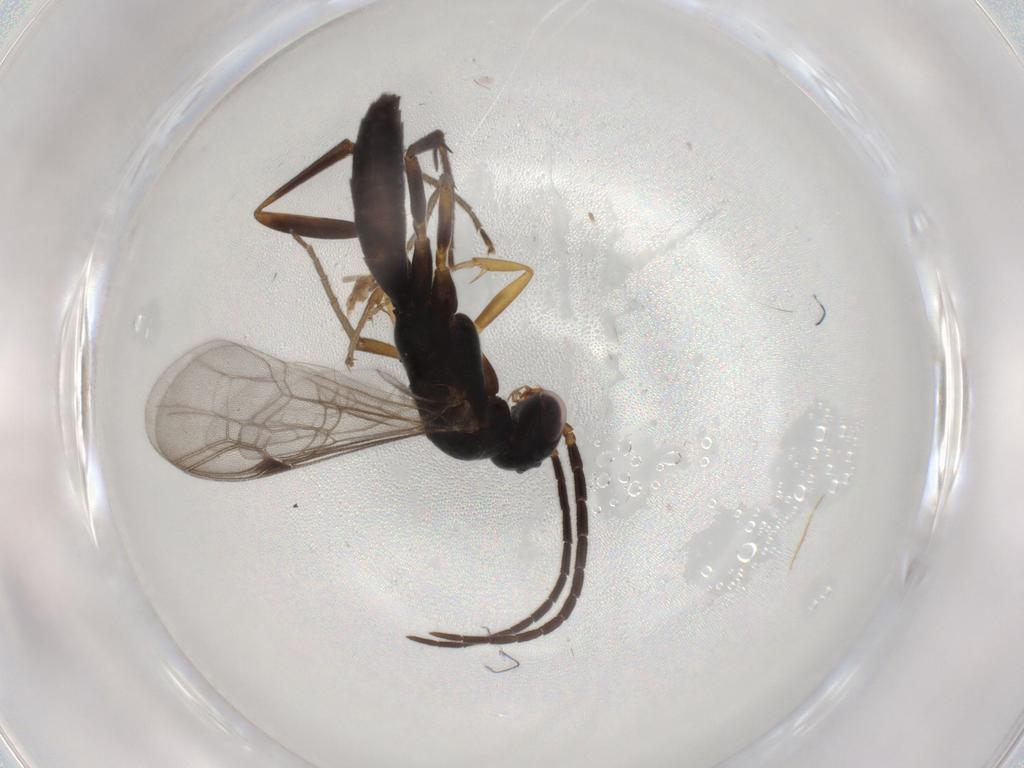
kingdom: Animalia
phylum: Arthropoda
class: Insecta
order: Hymenoptera
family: Pompilidae
